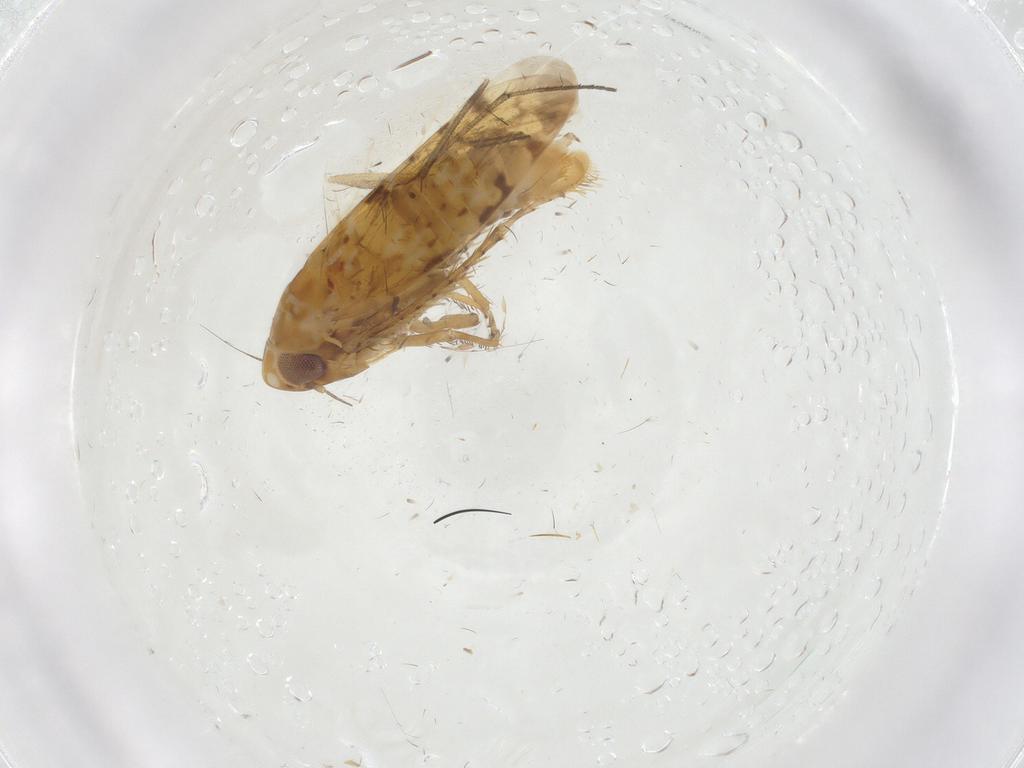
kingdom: Animalia
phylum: Arthropoda
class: Insecta
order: Hemiptera
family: Cicadellidae
